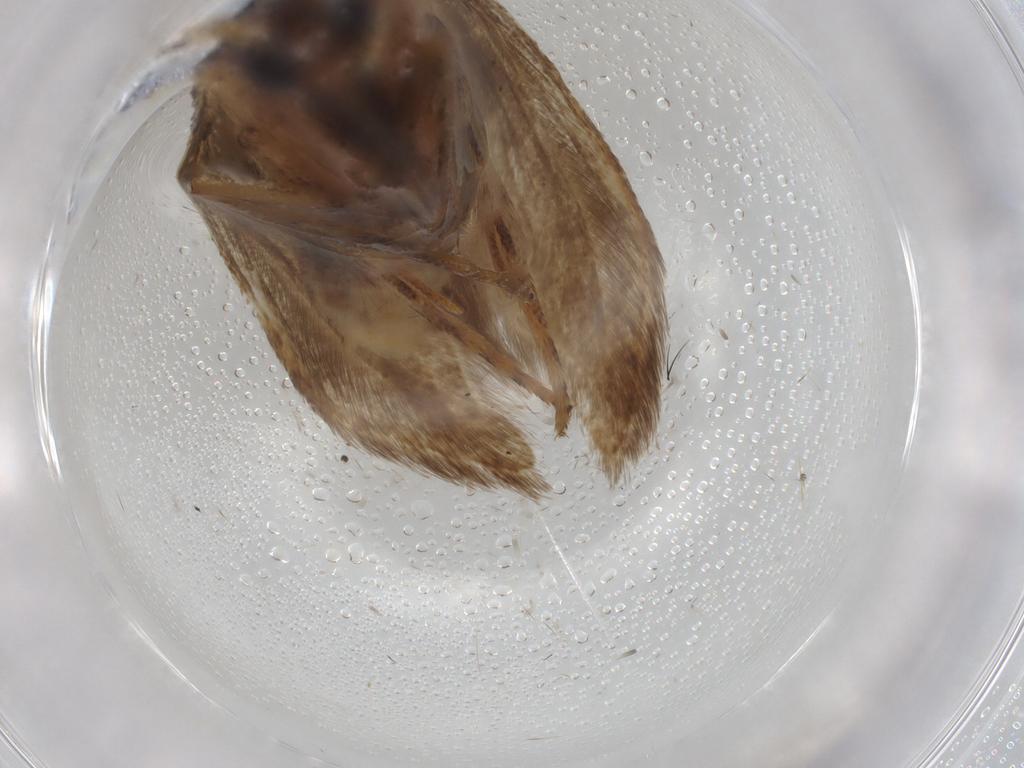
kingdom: Animalia
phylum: Arthropoda
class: Insecta
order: Lepidoptera
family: Blastobasidae
